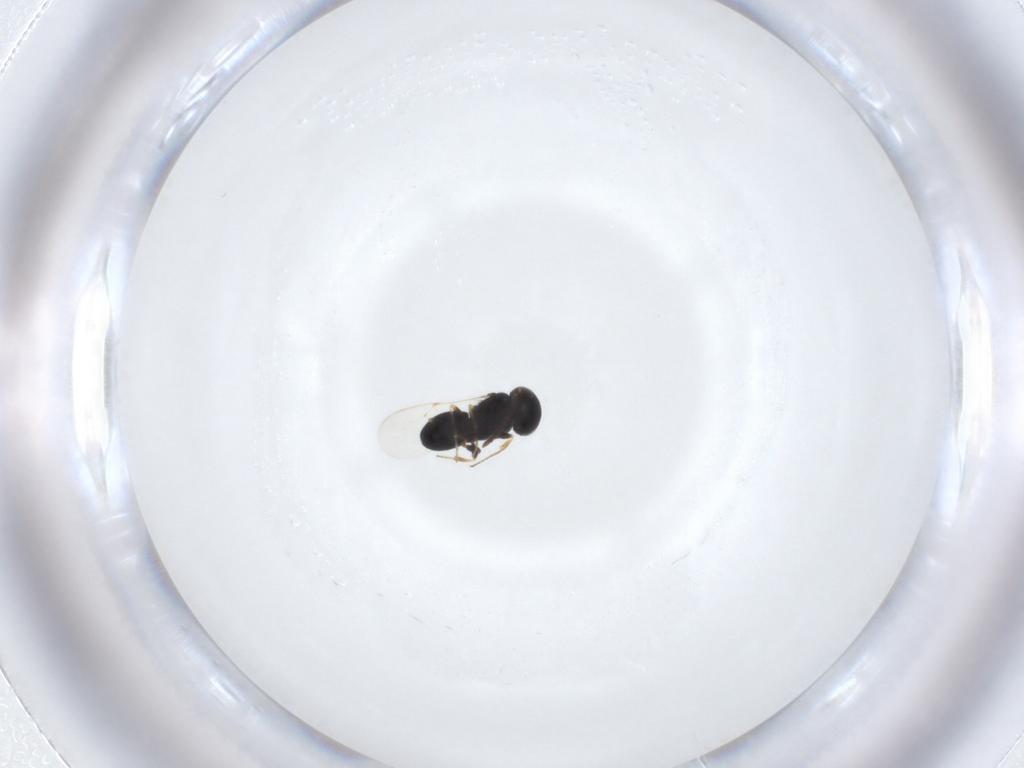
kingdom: Animalia
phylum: Arthropoda
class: Insecta
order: Hymenoptera
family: Scelionidae
